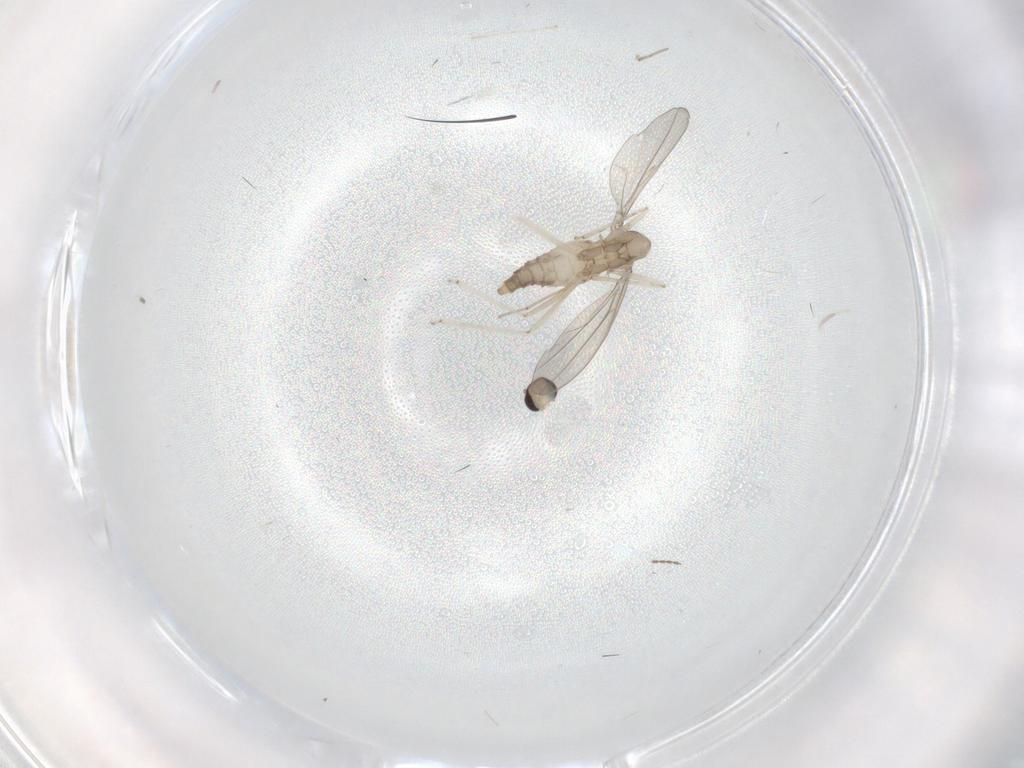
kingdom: Animalia
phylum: Arthropoda
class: Insecta
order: Diptera
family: Cecidomyiidae
